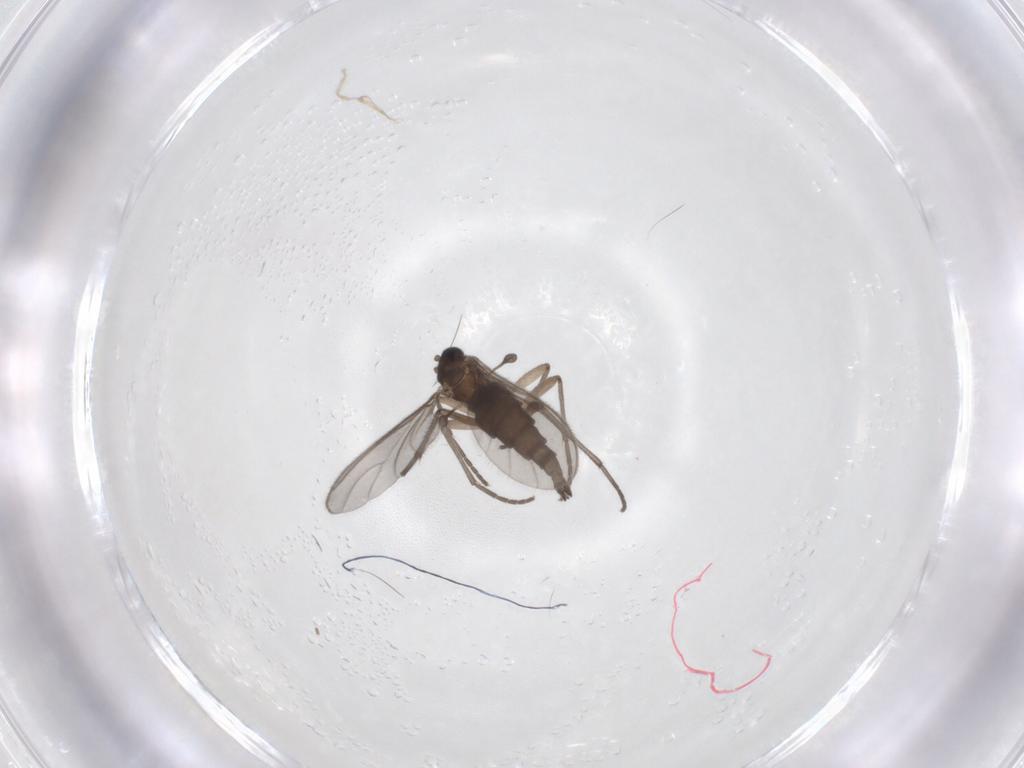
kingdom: Animalia
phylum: Arthropoda
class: Insecta
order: Diptera
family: Sciaridae
